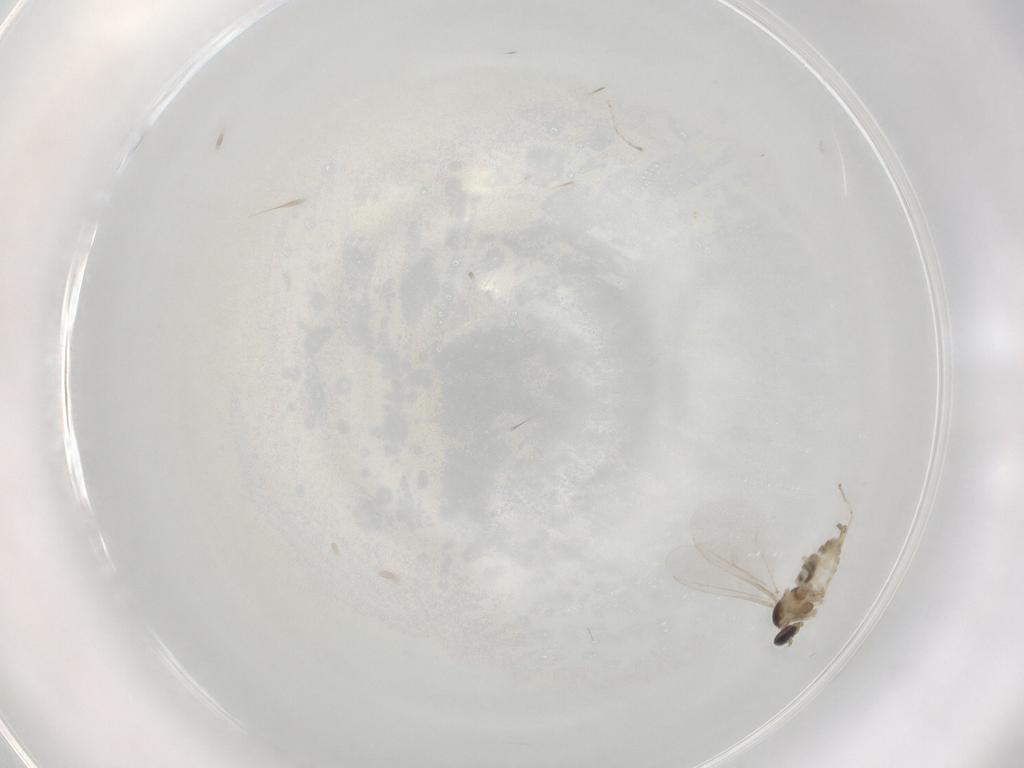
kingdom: Animalia
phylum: Arthropoda
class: Insecta
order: Diptera
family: Cecidomyiidae
